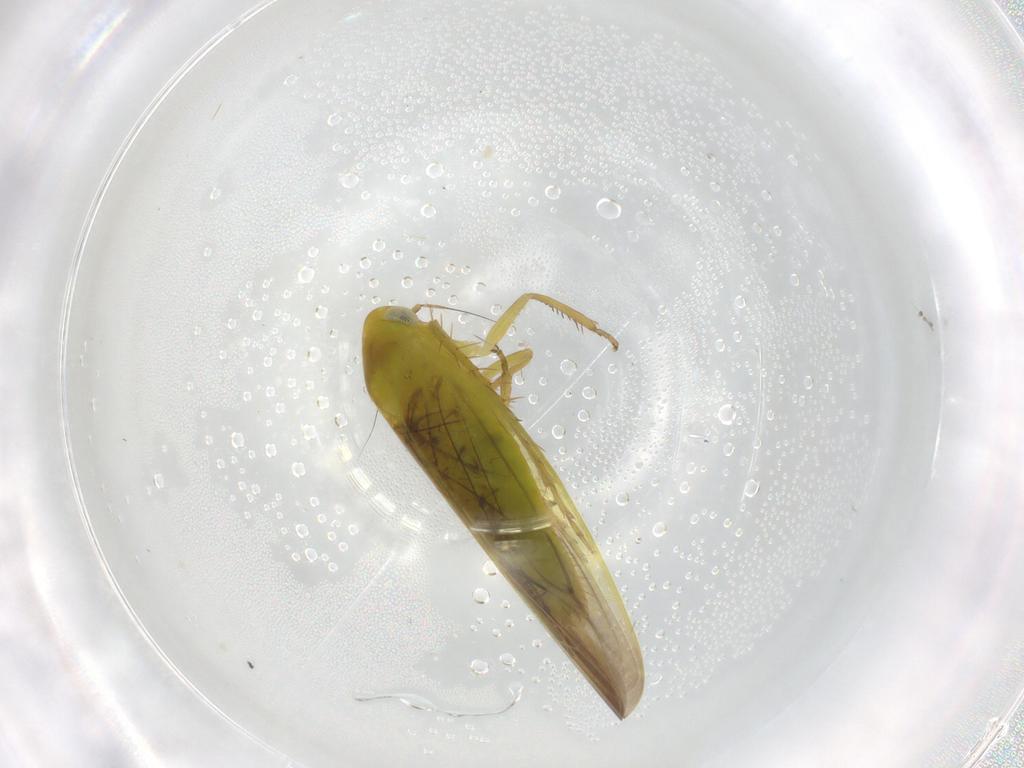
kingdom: Animalia
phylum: Arthropoda
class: Insecta
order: Hemiptera
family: Cicadellidae
